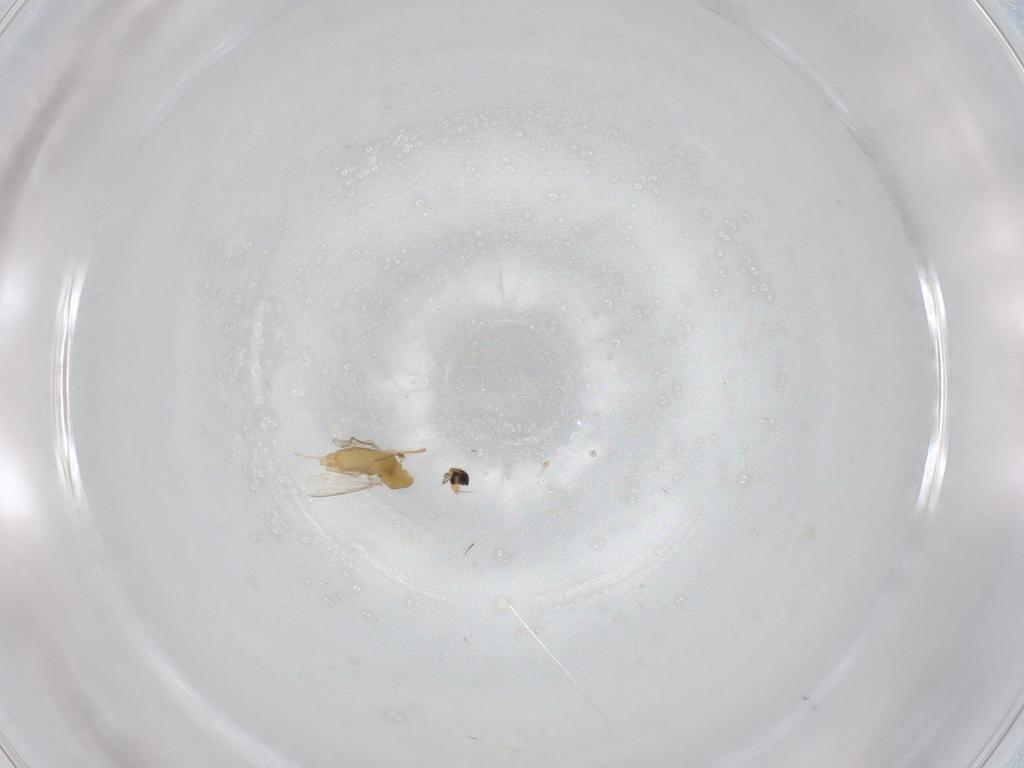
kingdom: Animalia
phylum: Arthropoda
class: Insecta
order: Diptera
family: Chironomidae
